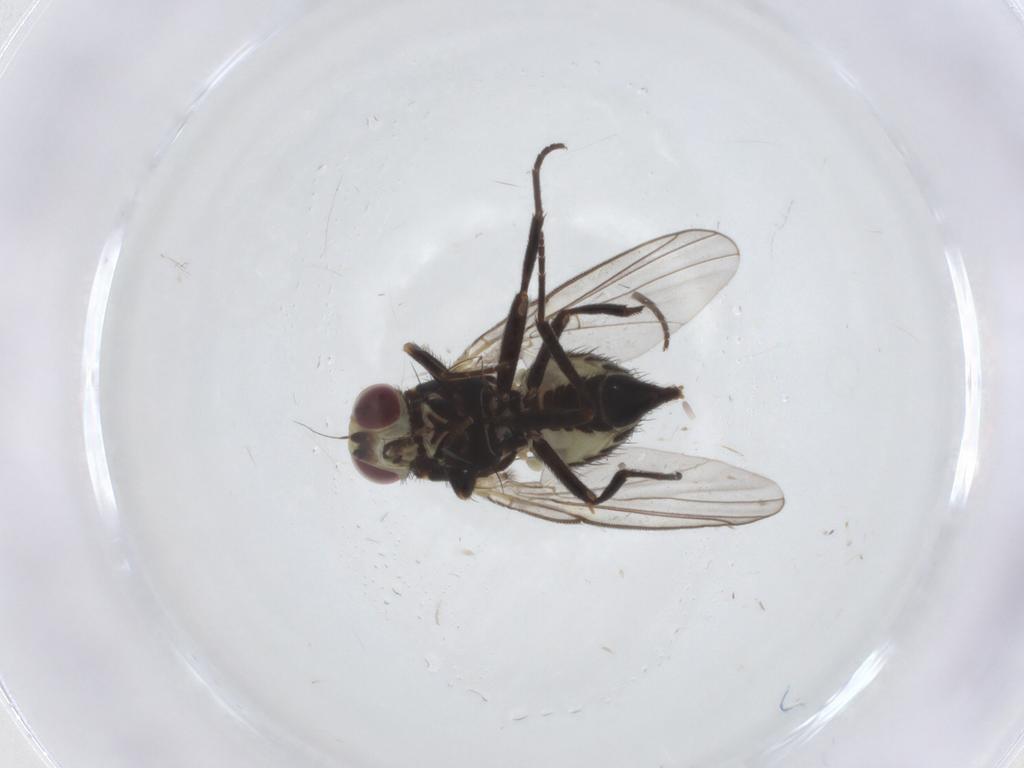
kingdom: Animalia
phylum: Arthropoda
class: Insecta
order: Diptera
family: Agromyzidae
